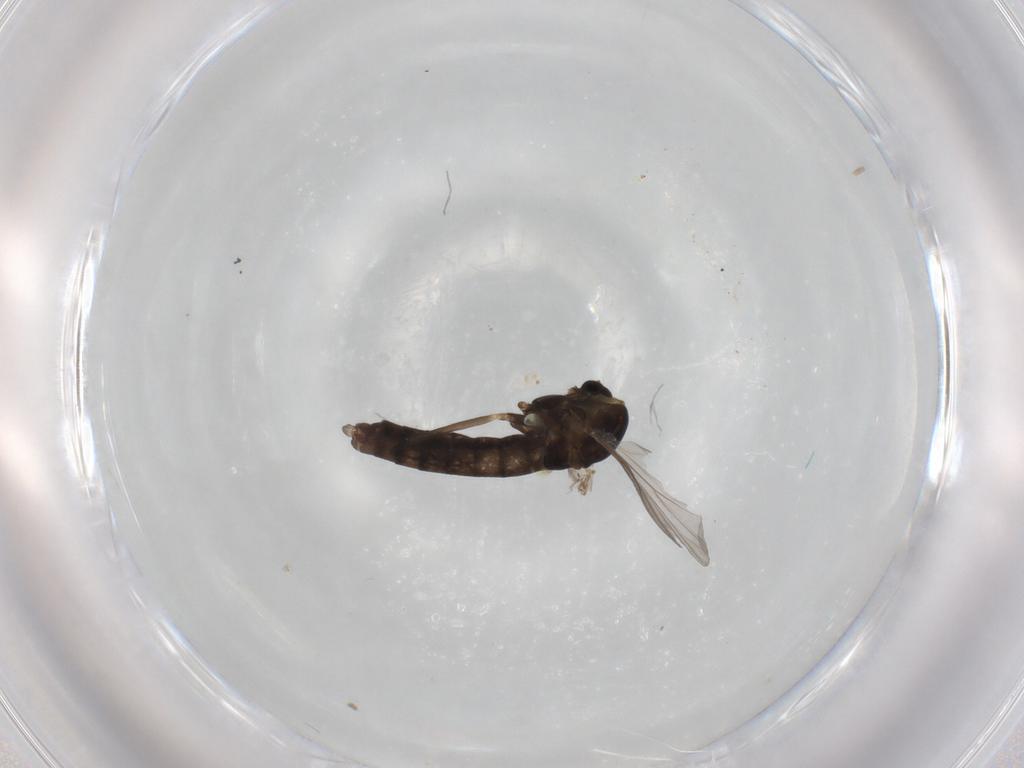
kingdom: Animalia
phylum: Arthropoda
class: Insecta
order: Diptera
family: Chironomidae
